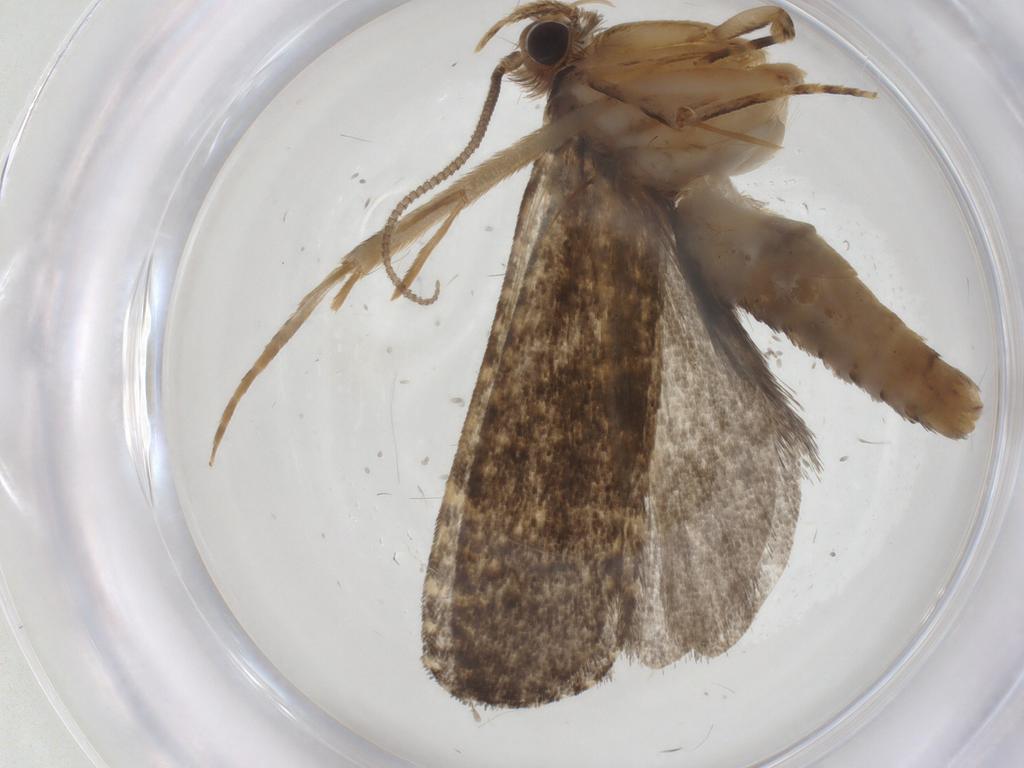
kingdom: Animalia
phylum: Arthropoda
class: Insecta
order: Lepidoptera
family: Tineidae
